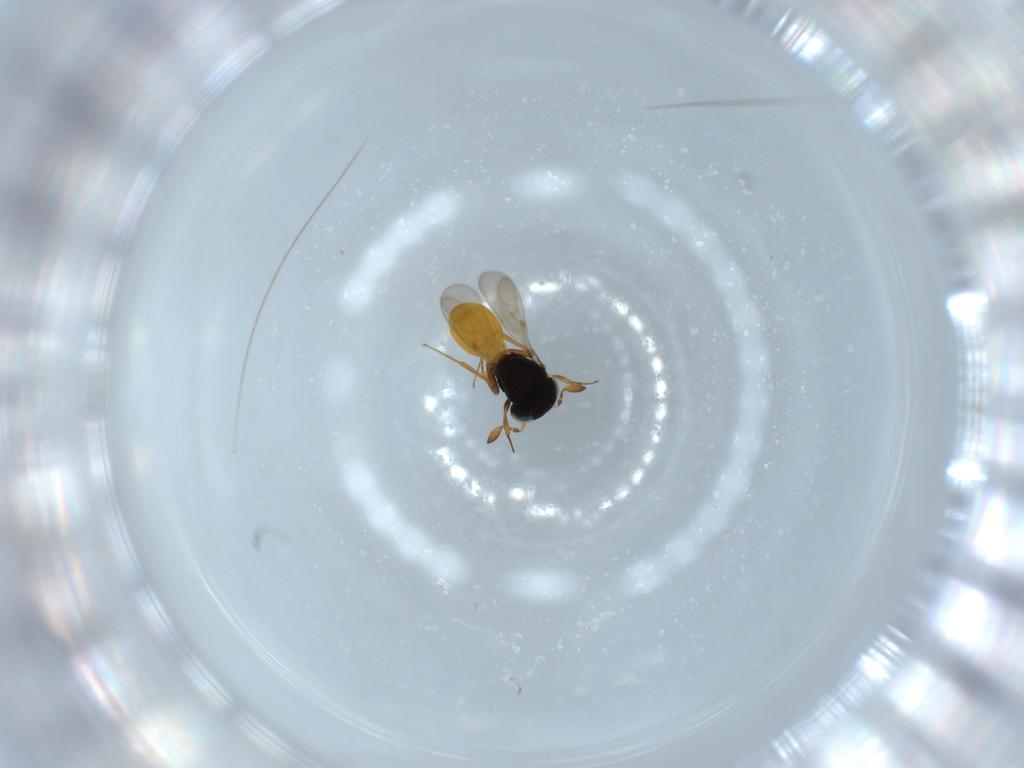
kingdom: Animalia
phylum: Arthropoda
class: Insecta
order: Hymenoptera
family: Scelionidae
